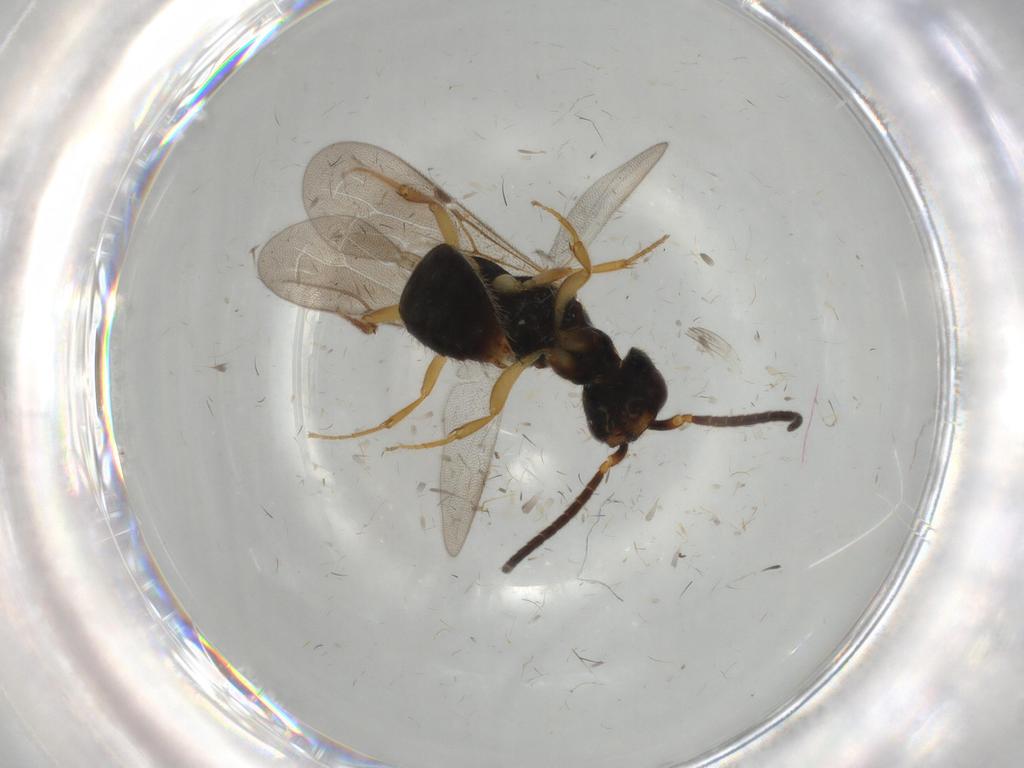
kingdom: Animalia
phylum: Arthropoda
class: Insecta
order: Hymenoptera
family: Bethylidae
